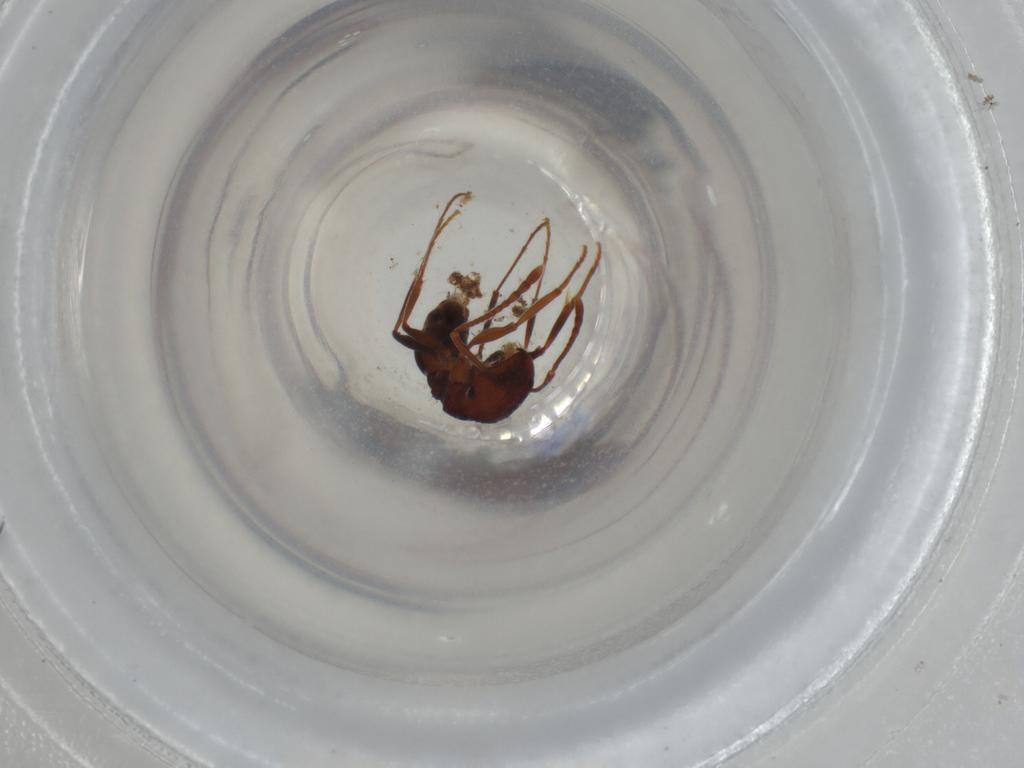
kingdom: Animalia
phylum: Arthropoda
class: Insecta
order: Hymenoptera
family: Formicidae
